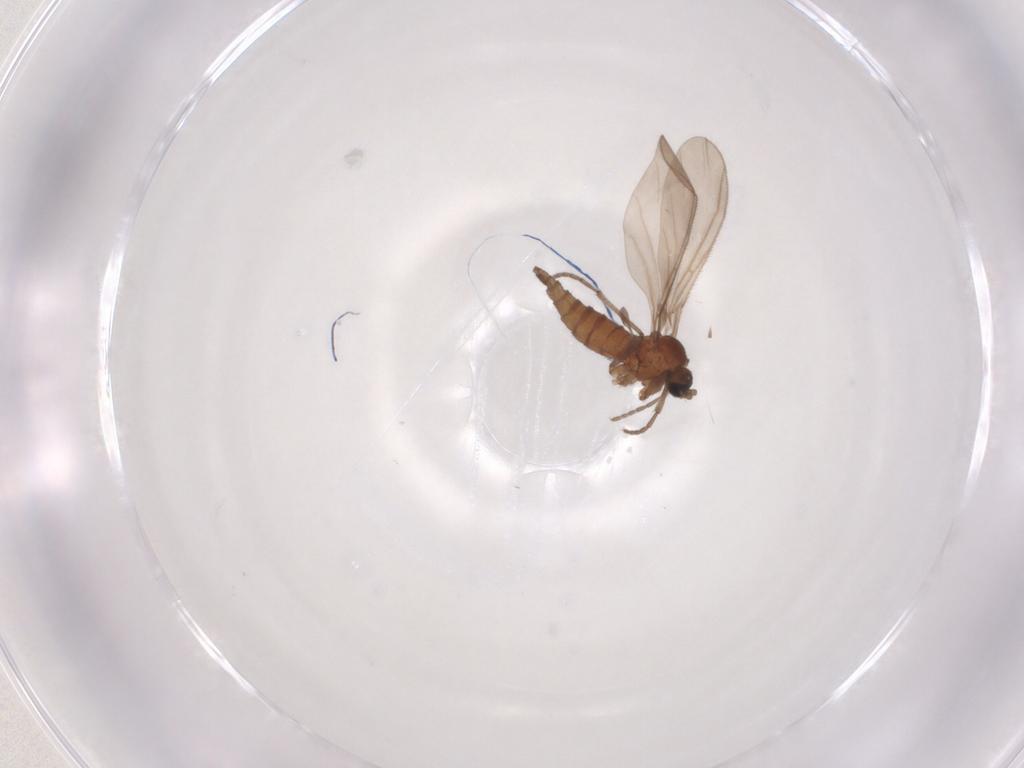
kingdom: Animalia
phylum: Arthropoda
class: Insecta
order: Diptera
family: Sciaridae
